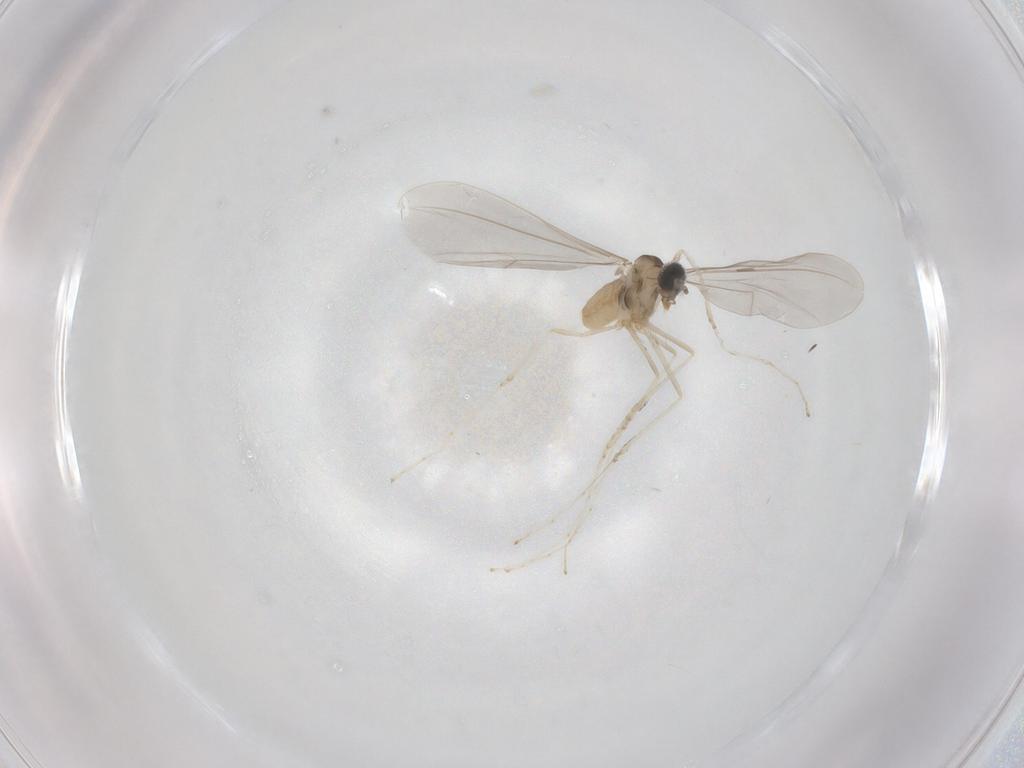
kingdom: Animalia
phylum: Arthropoda
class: Insecta
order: Diptera
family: Cecidomyiidae
